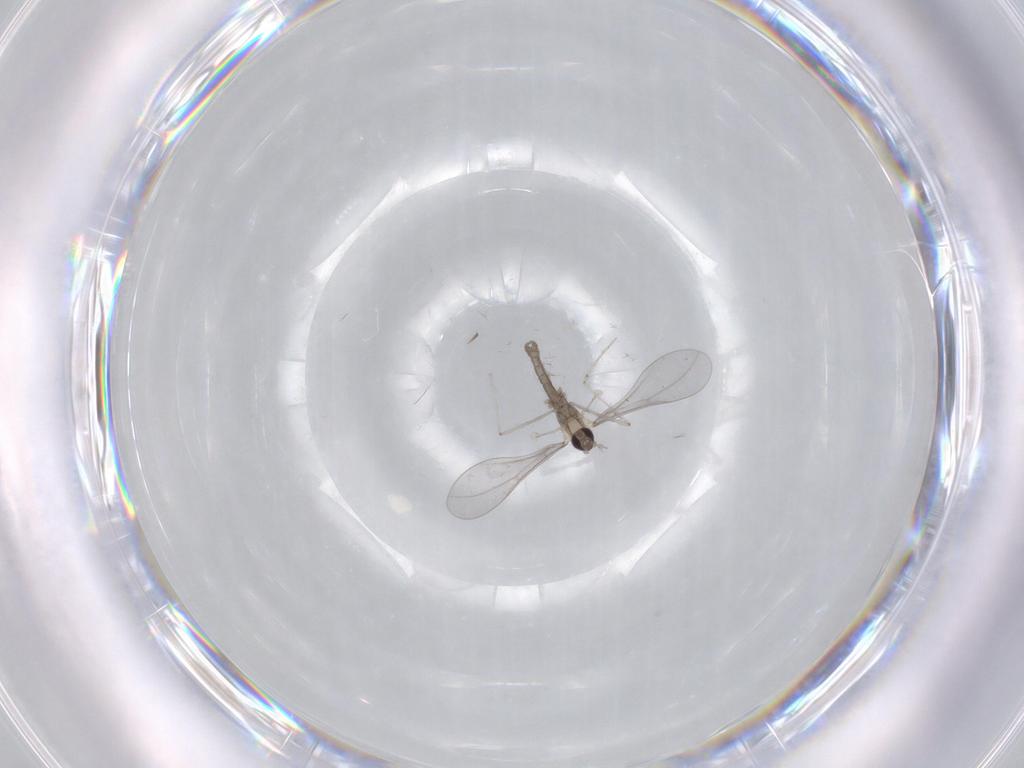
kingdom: Animalia
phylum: Arthropoda
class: Insecta
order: Diptera
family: Cecidomyiidae
